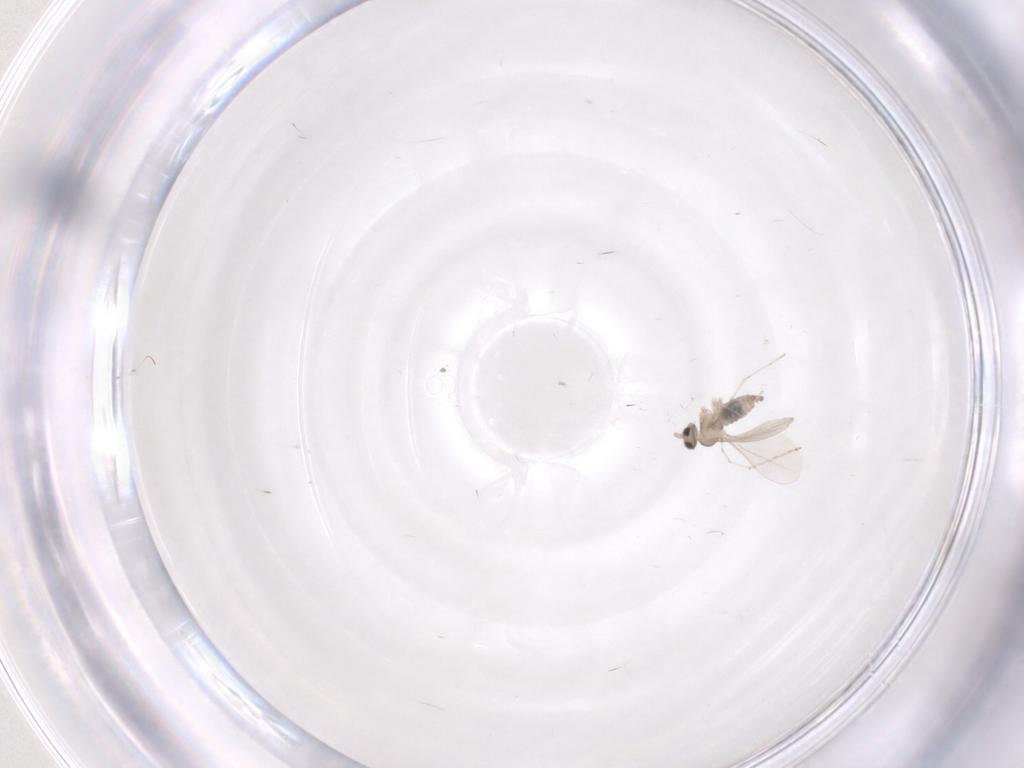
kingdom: Animalia
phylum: Arthropoda
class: Insecta
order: Diptera
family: Cecidomyiidae
